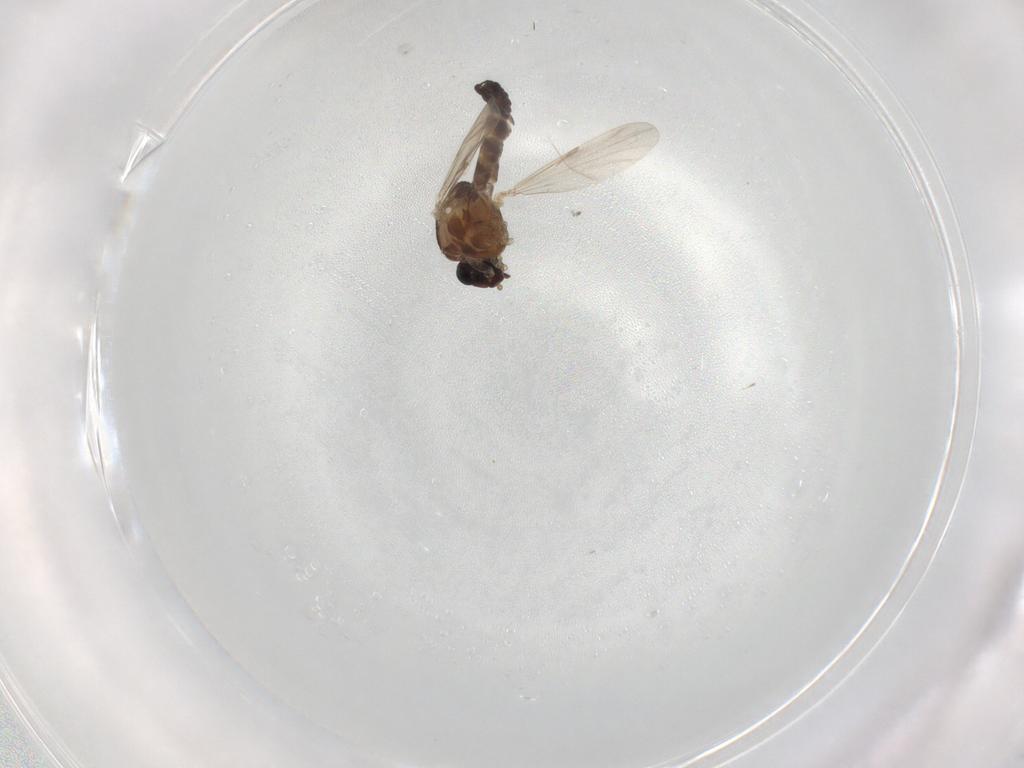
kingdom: Animalia
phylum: Arthropoda
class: Insecta
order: Diptera
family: Ceratopogonidae
